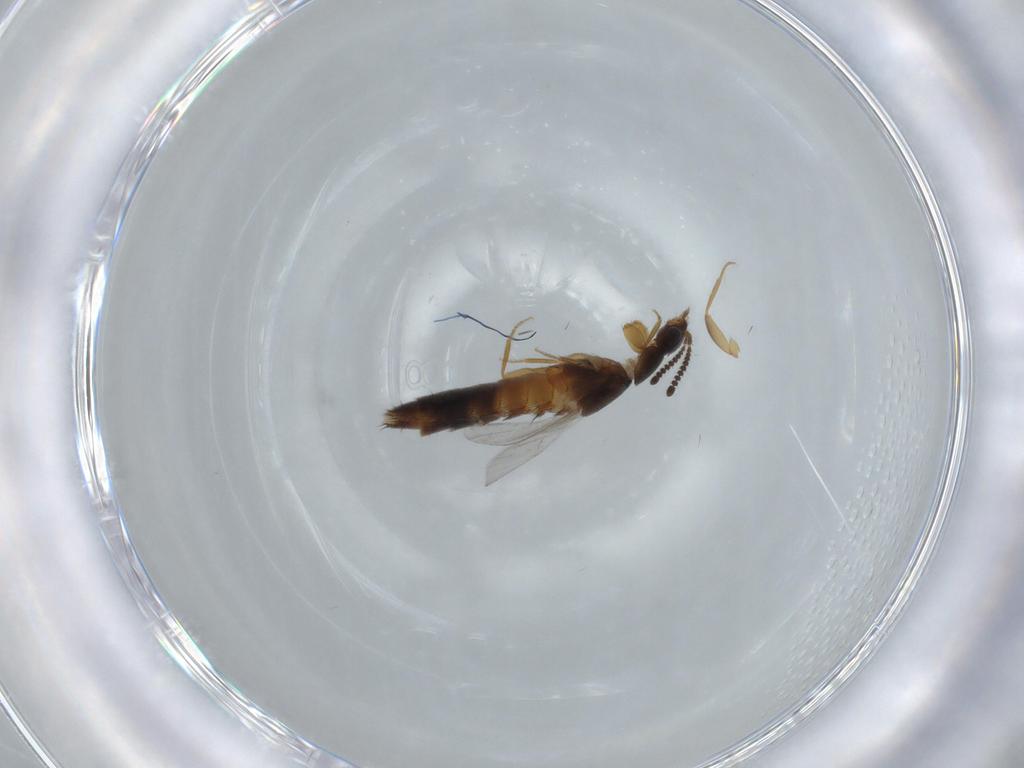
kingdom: Animalia
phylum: Arthropoda
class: Insecta
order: Coleoptera
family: Staphylinidae
